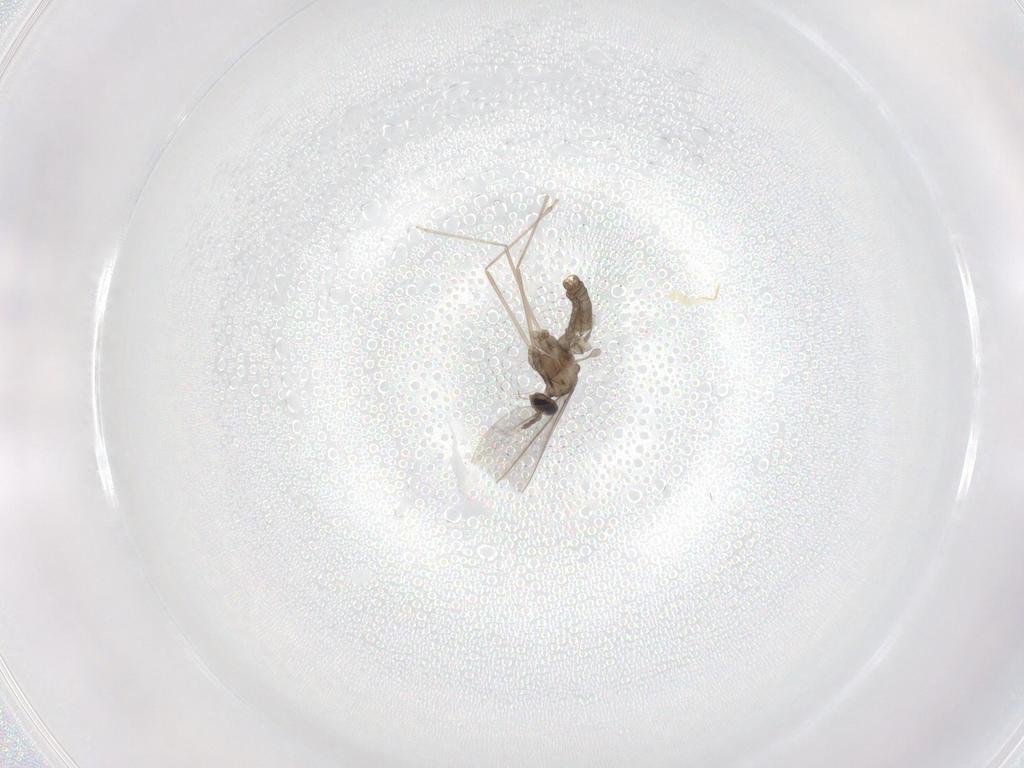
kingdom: Animalia
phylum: Arthropoda
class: Insecta
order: Diptera
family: Cecidomyiidae
